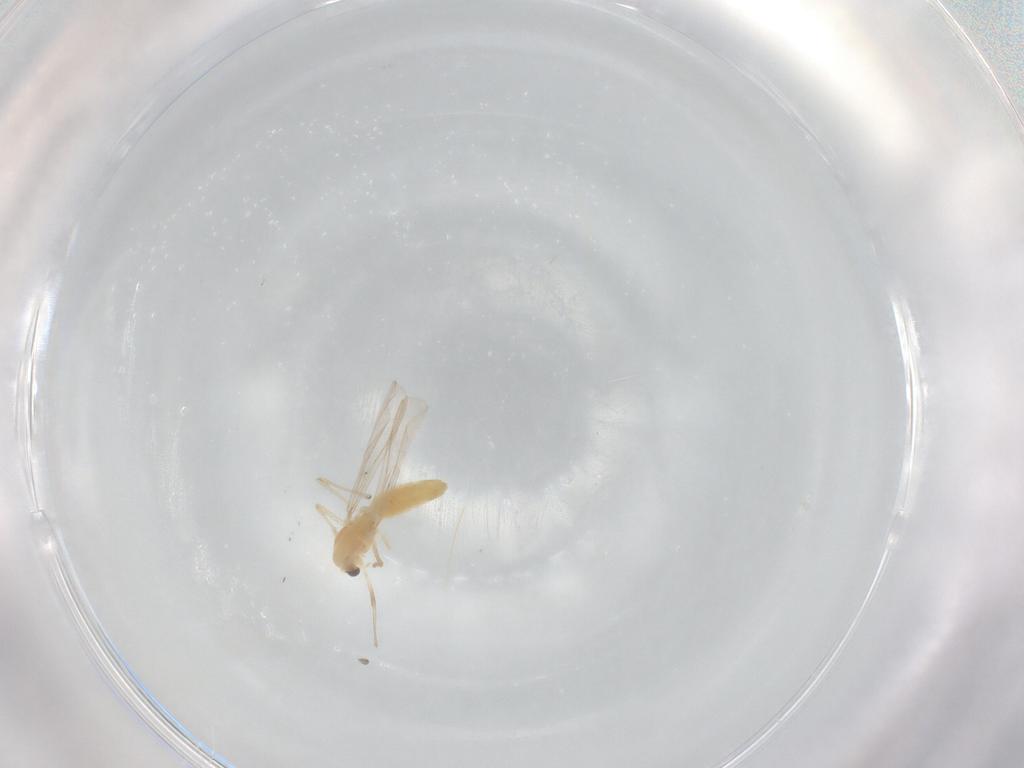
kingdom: Animalia
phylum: Arthropoda
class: Insecta
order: Diptera
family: Chironomidae
